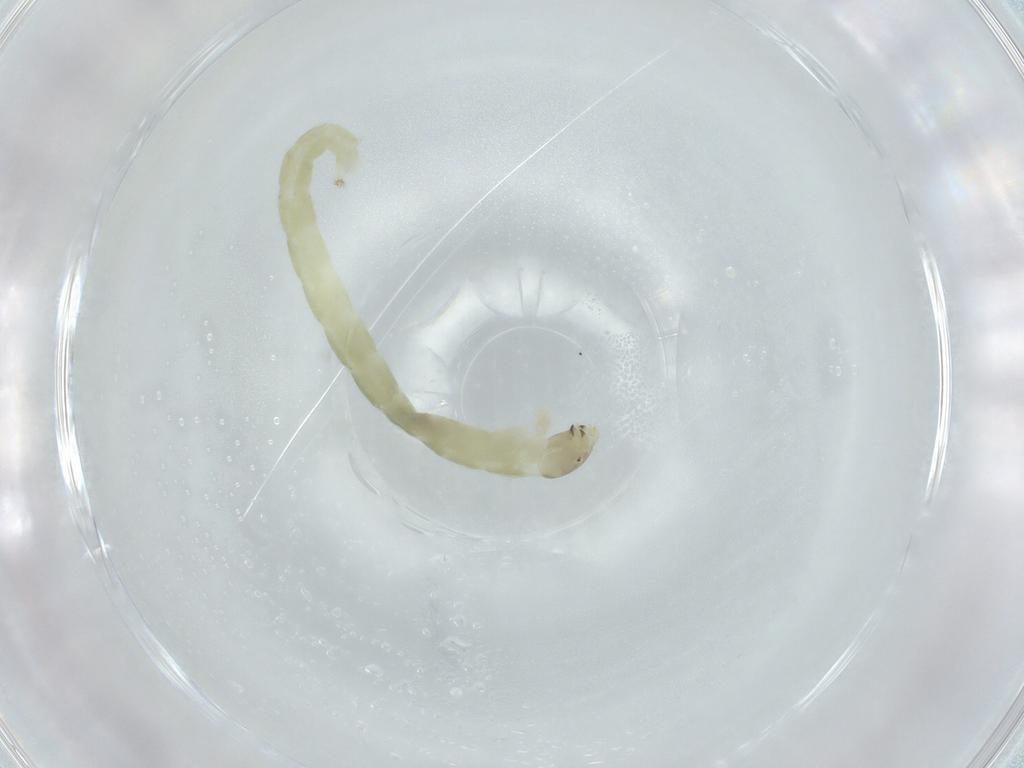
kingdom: Animalia
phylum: Arthropoda
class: Insecta
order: Diptera
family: Chironomidae
